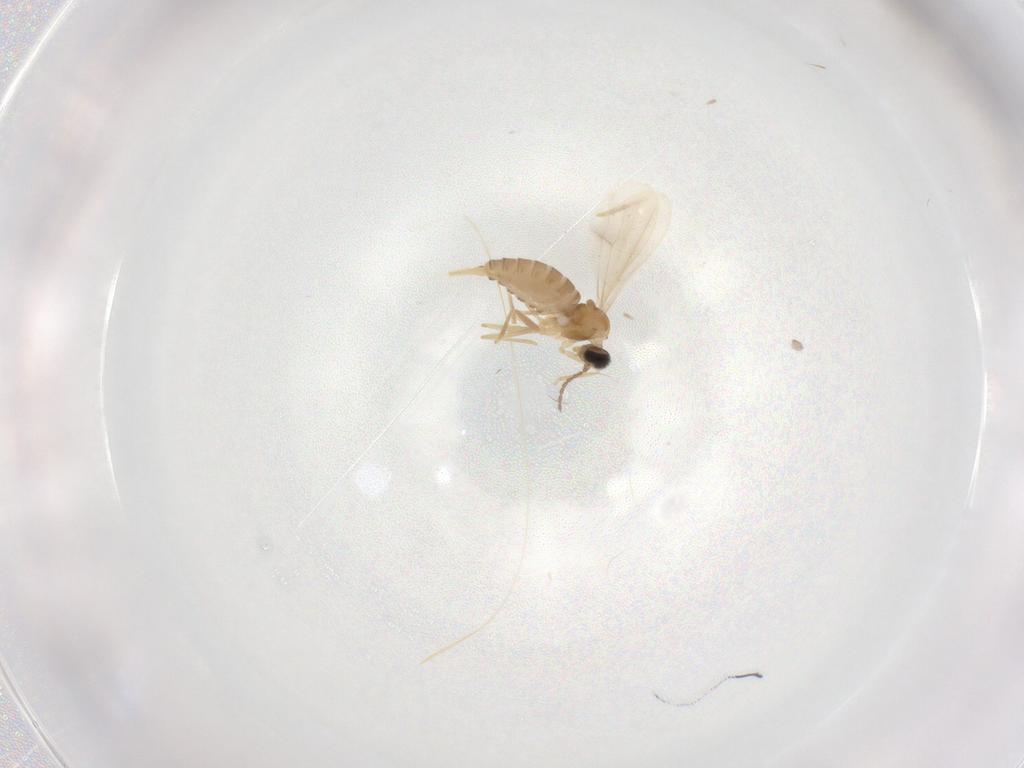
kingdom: Animalia
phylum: Arthropoda
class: Insecta
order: Diptera
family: Cecidomyiidae
